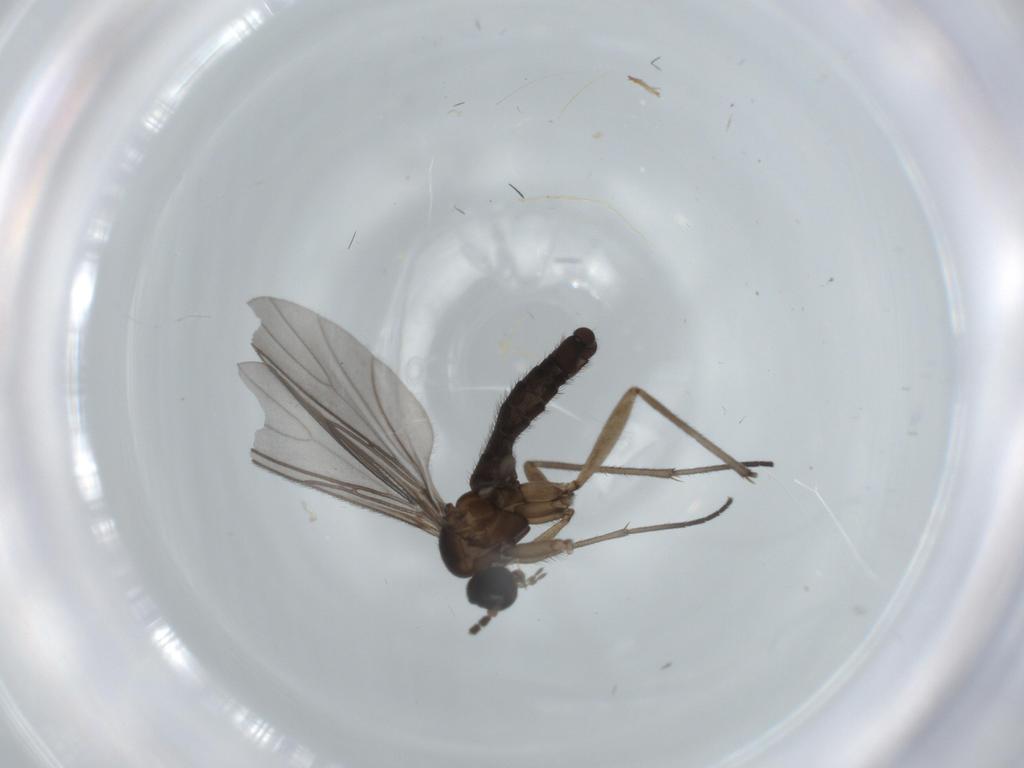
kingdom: Animalia
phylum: Arthropoda
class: Insecta
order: Diptera
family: Sciaridae
